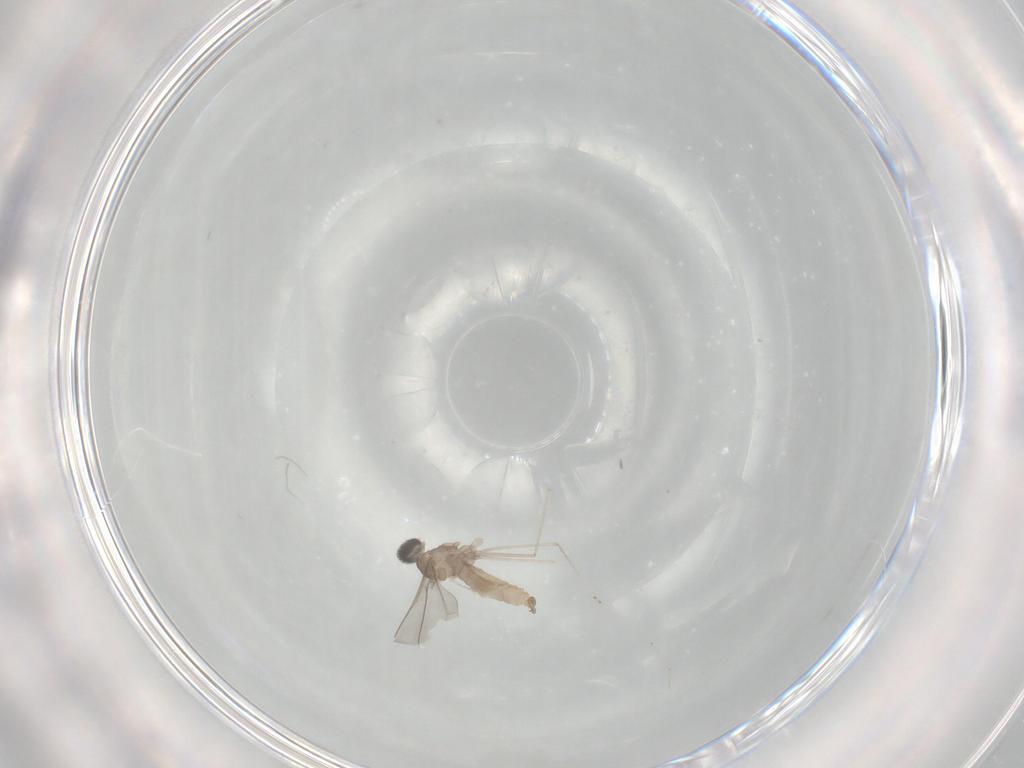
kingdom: Animalia
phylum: Arthropoda
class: Insecta
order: Diptera
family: Cecidomyiidae
